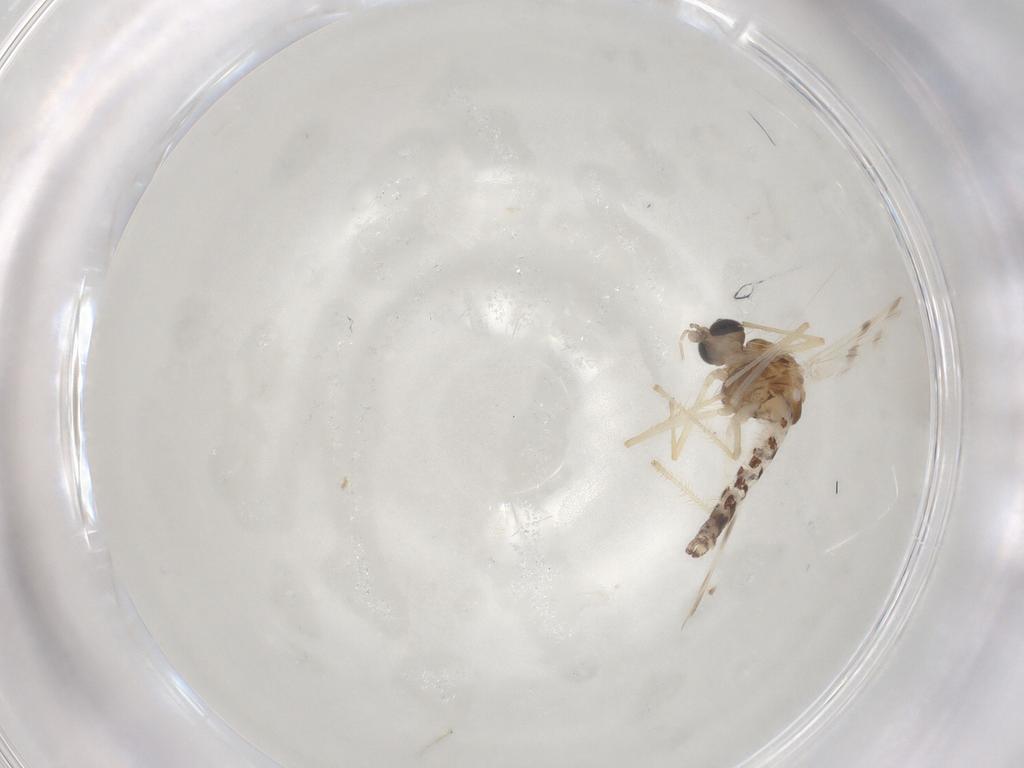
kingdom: Animalia
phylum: Arthropoda
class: Insecta
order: Diptera
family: Chironomidae
